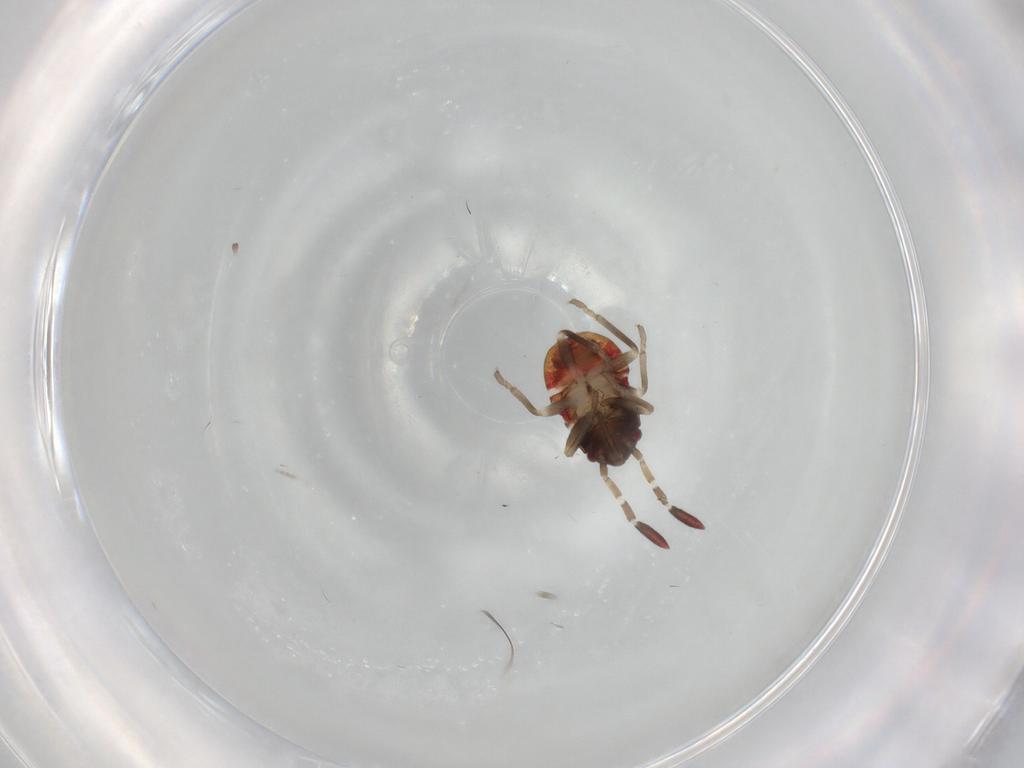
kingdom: Animalia
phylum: Arthropoda
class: Insecta
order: Hemiptera
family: Rhyparochromidae
